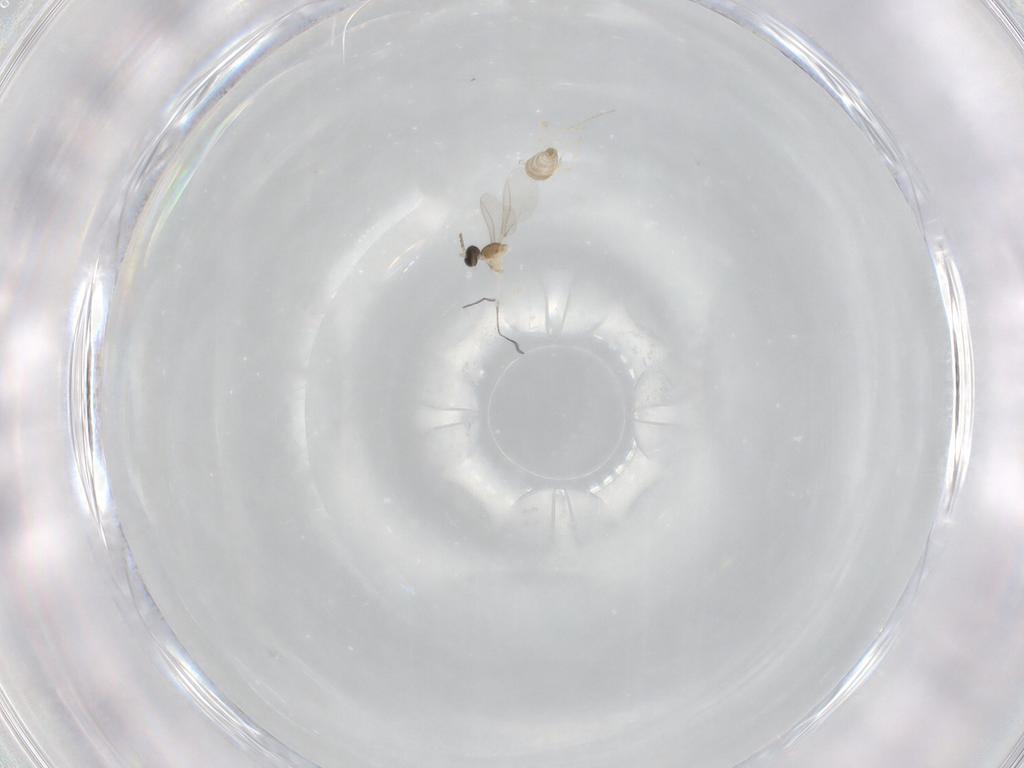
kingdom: Animalia
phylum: Arthropoda
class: Insecta
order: Diptera
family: Cecidomyiidae
